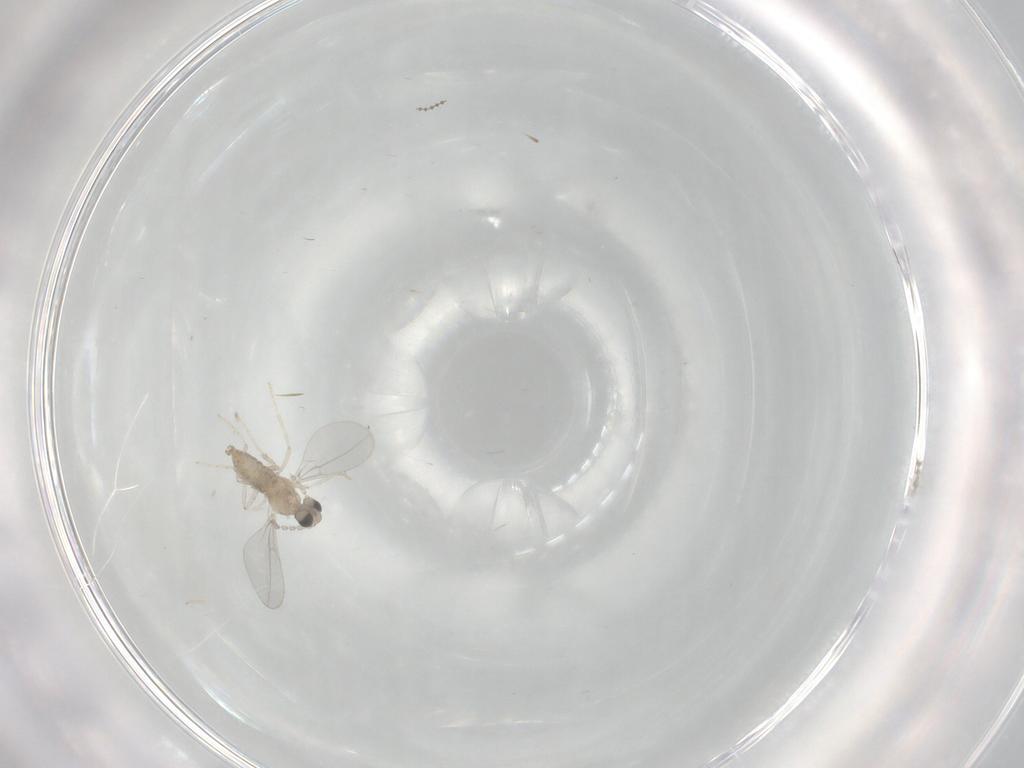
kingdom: Animalia
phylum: Arthropoda
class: Insecta
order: Diptera
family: Cecidomyiidae
